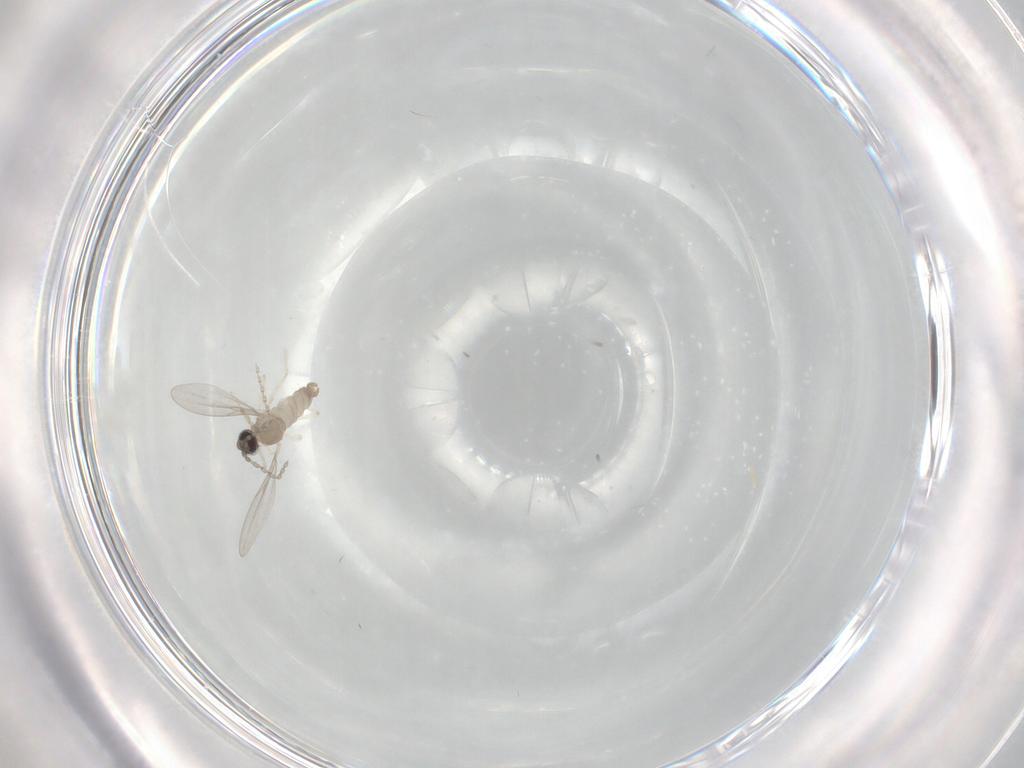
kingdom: Animalia
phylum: Arthropoda
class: Insecta
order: Diptera
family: Cecidomyiidae
